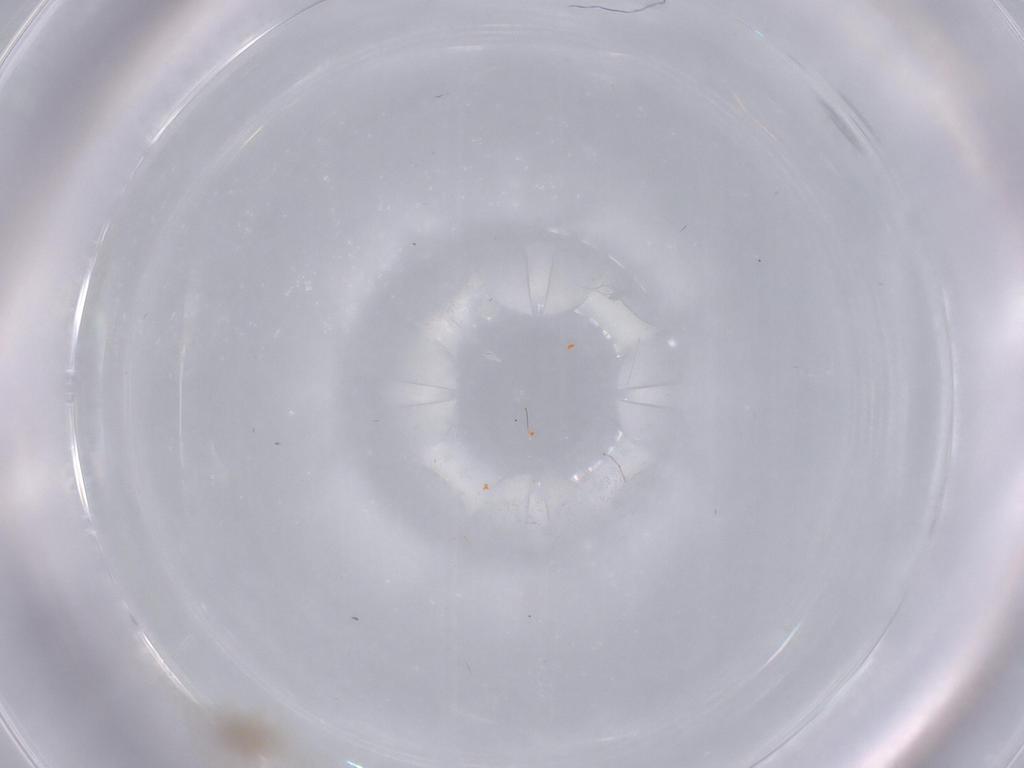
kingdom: Animalia
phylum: Arthropoda
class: Insecta
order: Diptera
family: Cecidomyiidae
